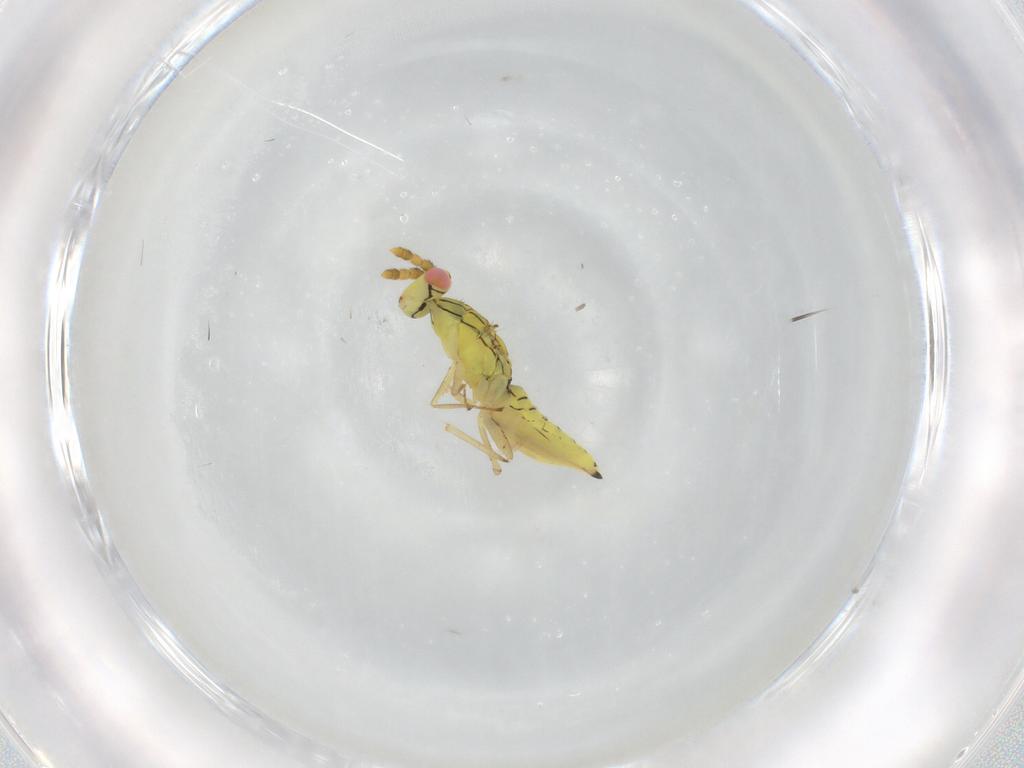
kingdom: Animalia
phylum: Arthropoda
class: Insecta
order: Hymenoptera
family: Eulophidae
